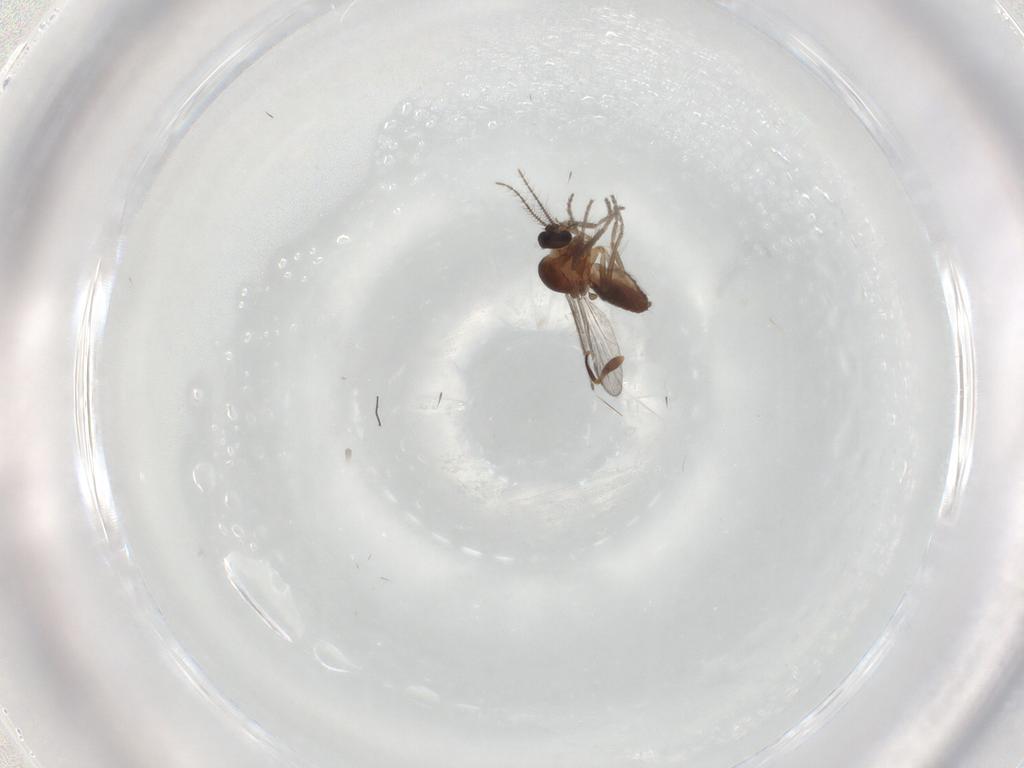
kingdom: Animalia
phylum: Arthropoda
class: Insecta
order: Diptera
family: Ceratopogonidae
